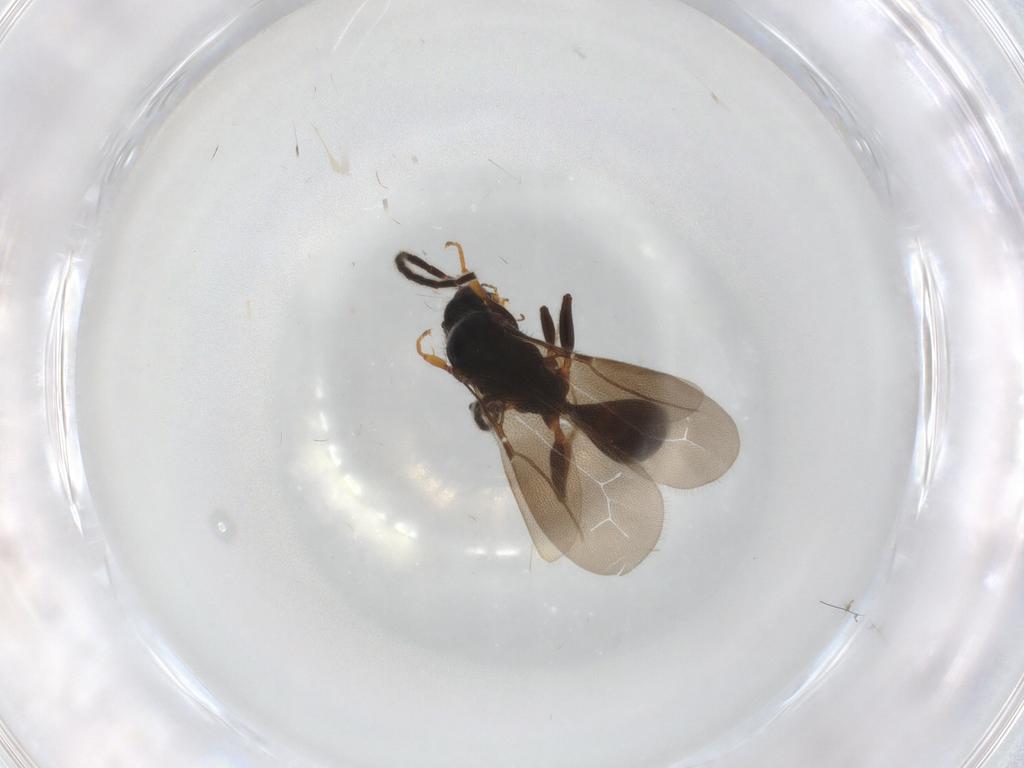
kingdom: Animalia
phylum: Arthropoda
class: Insecta
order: Hymenoptera
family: Bethylidae
